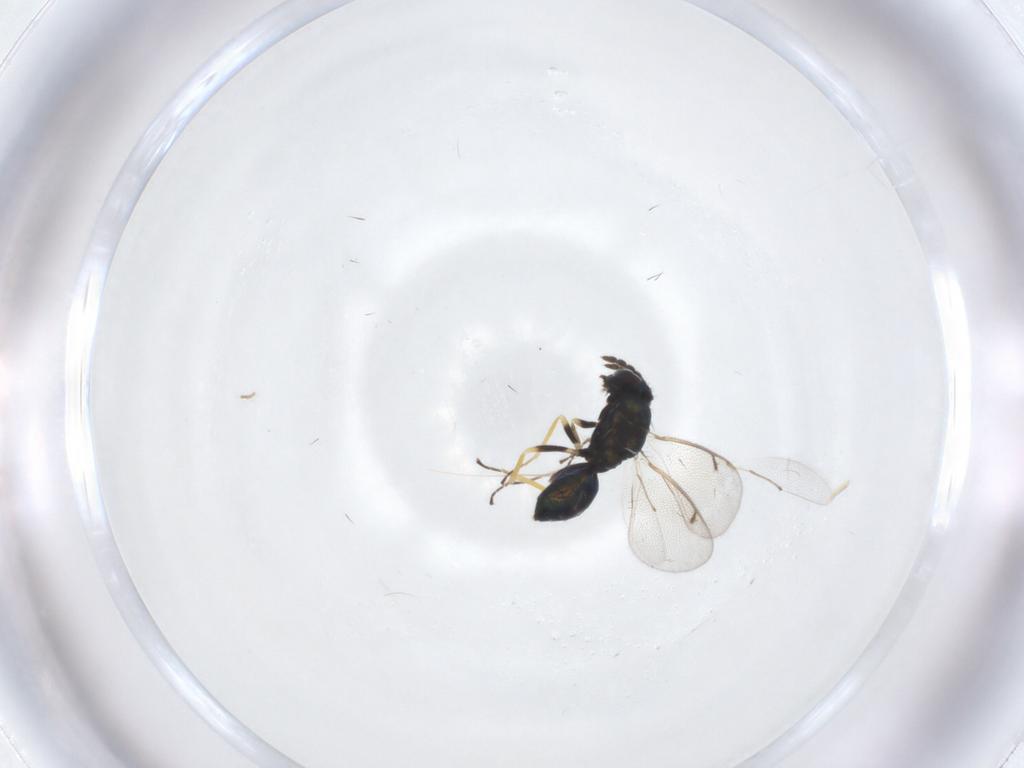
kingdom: Animalia
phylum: Arthropoda
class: Insecta
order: Hymenoptera
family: Eulophidae
